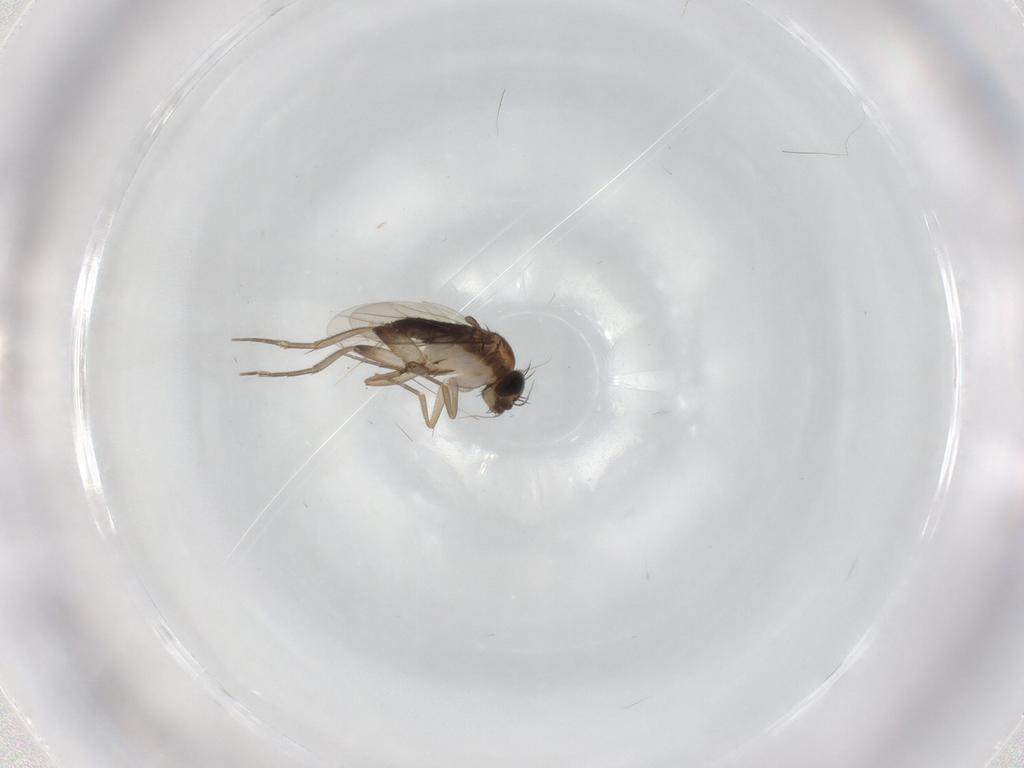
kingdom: Animalia
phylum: Arthropoda
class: Insecta
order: Diptera
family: Phoridae
